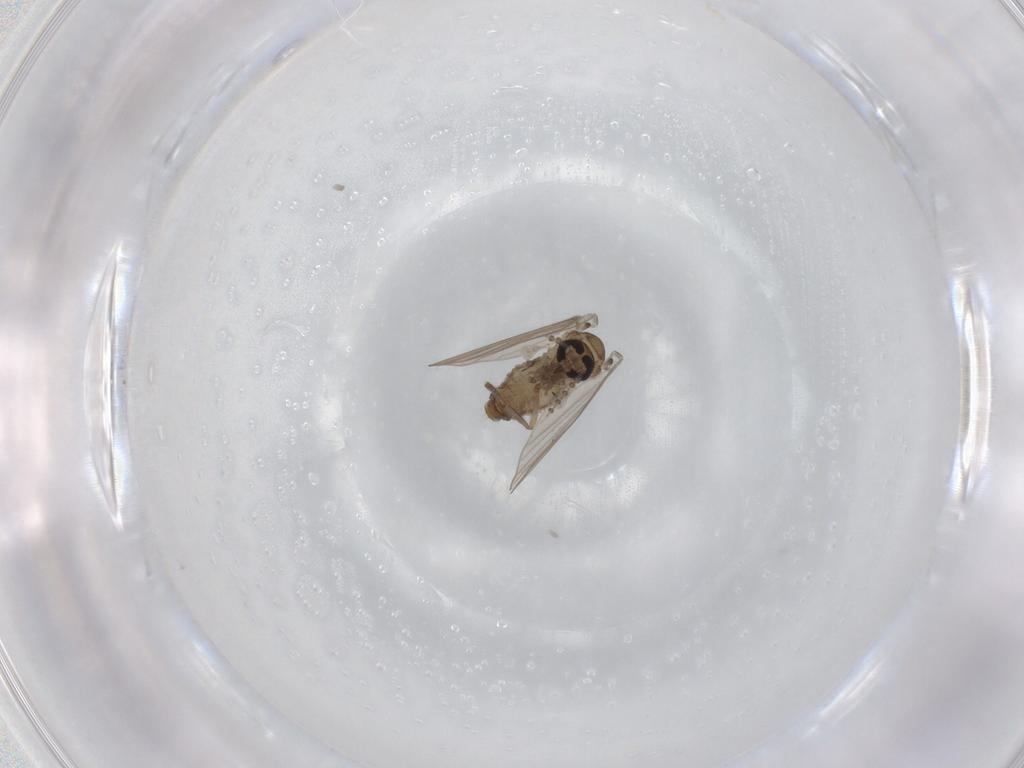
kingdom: Animalia
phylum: Arthropoda
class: Insecta
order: Diptera
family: Psychodidae
